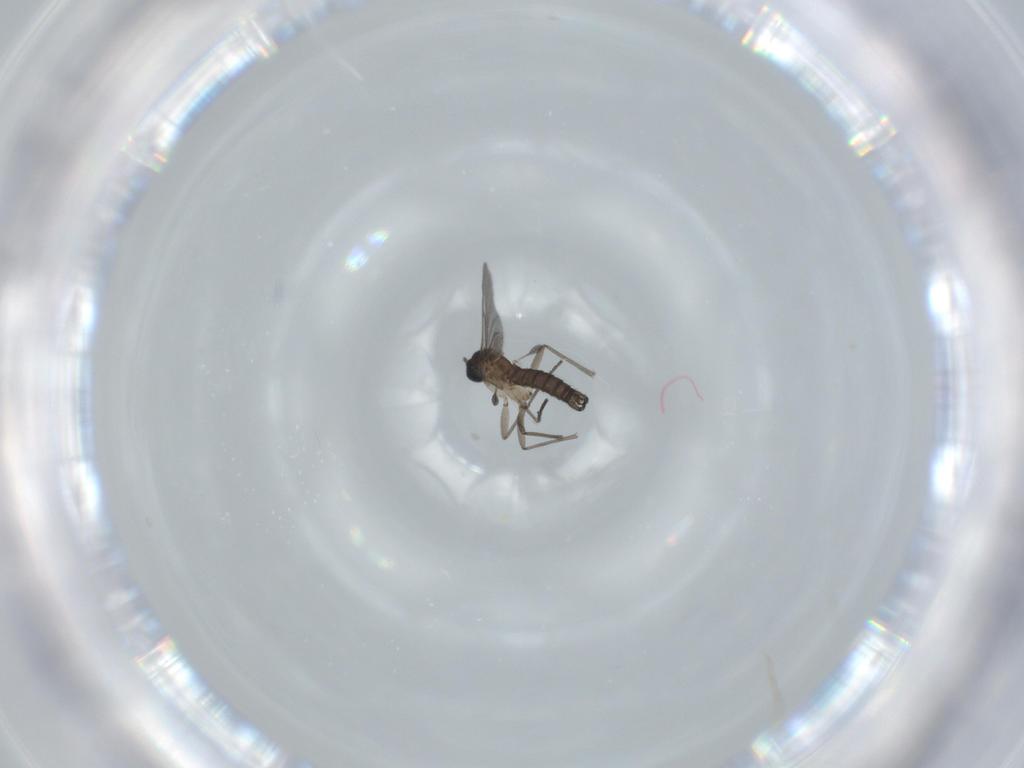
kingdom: Animalia
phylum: Arthropoda
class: Insecta
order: Diptera
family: Sciaridae
